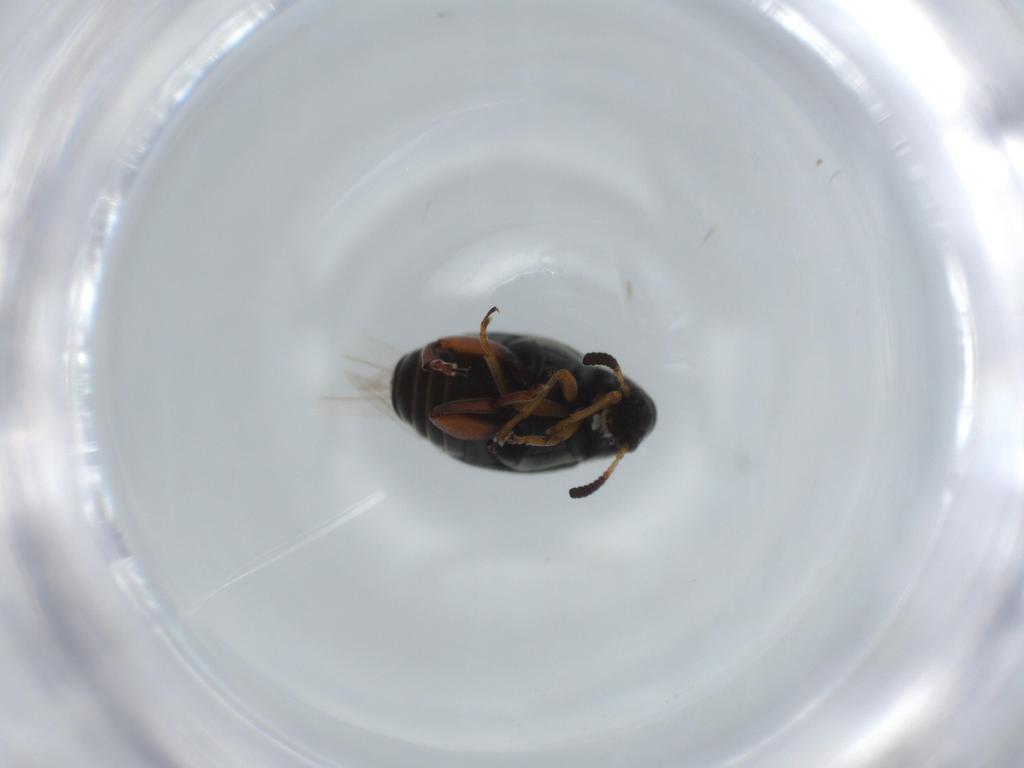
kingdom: Animalia
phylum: Arthropoda
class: Insecta
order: Coleoptera
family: Chrysomelidae
